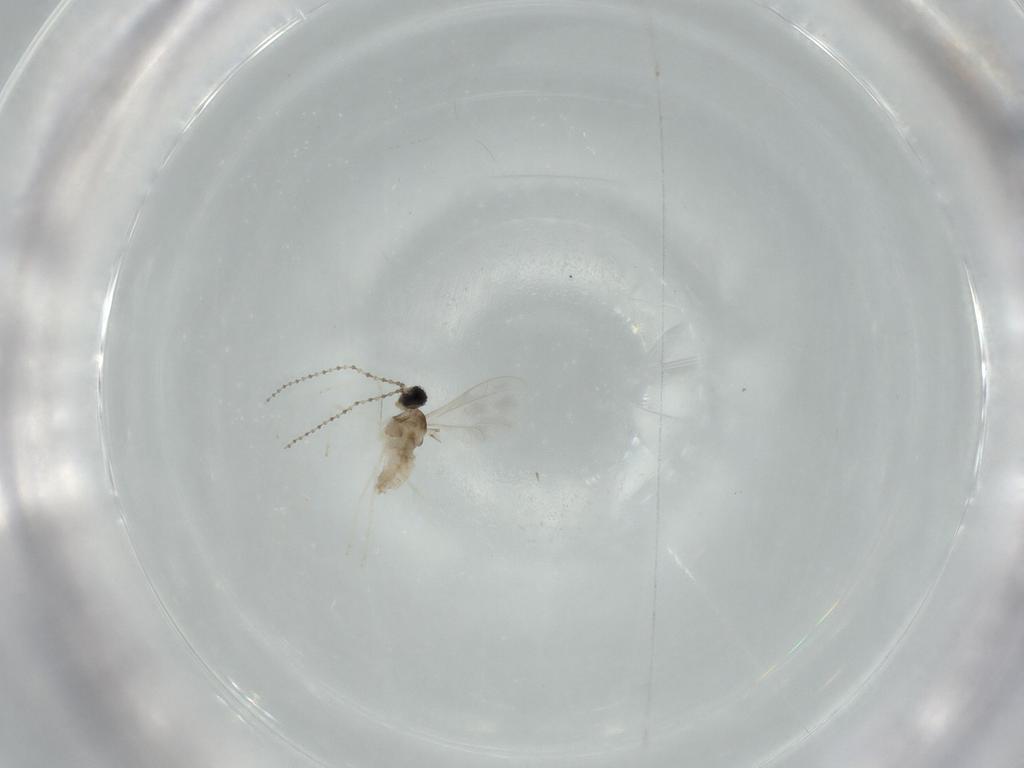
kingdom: Animalia
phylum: Arthropoda
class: Insecta
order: Diptera
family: Cecidomyiidae
